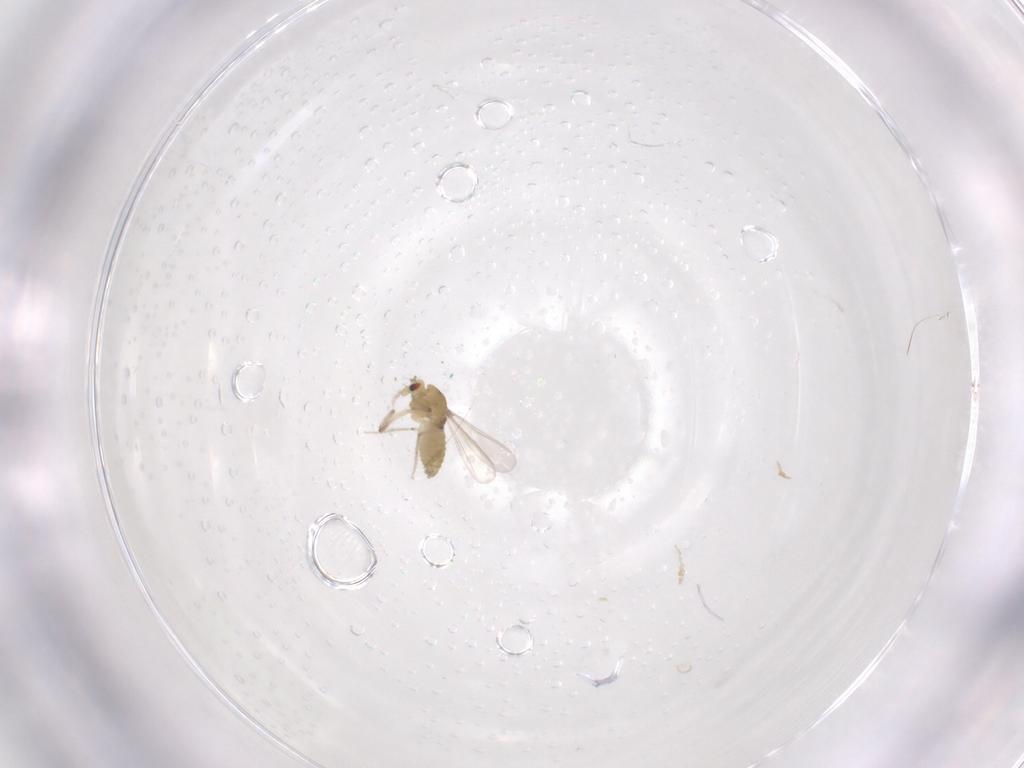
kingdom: Animalia
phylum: Arthropoda
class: Insecta
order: Diptera
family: Chironomidae
